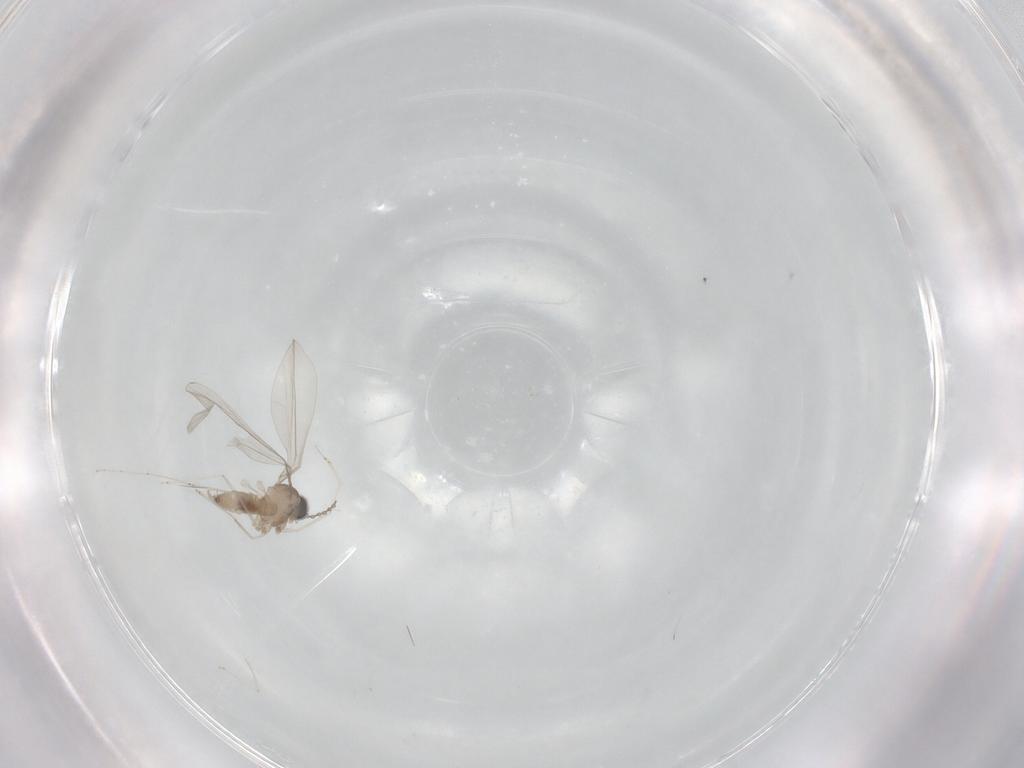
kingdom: Animalia
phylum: Arthropoda
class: Insecta
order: Diptera
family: Cecidomyiidae
